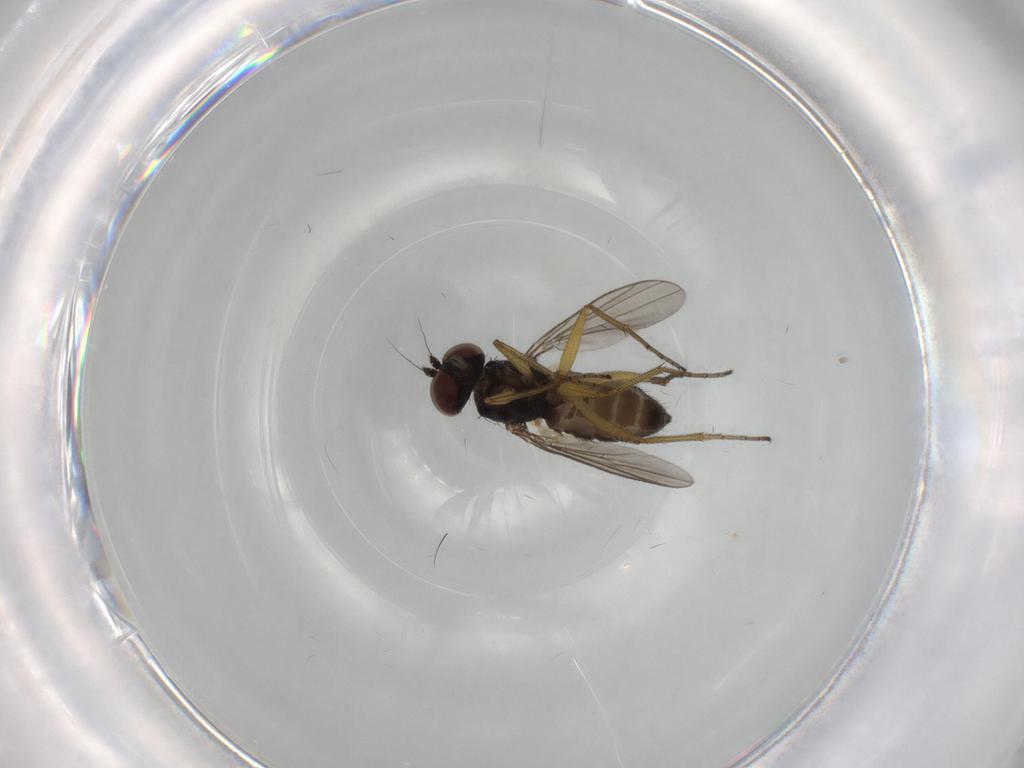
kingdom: Animalia
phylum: Arthropoda
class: Insecta
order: Diptera
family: Dolichopodidae
